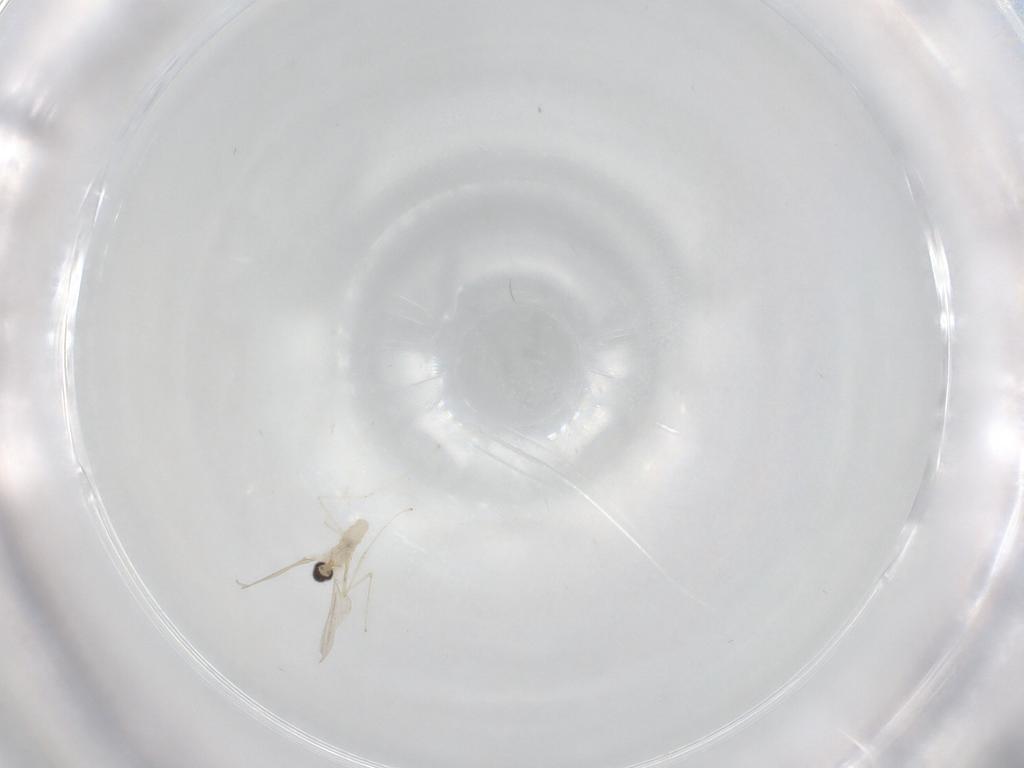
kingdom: Animalia
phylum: Arthropoda
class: Insecta
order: Diptera
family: Cecidomyiidae
